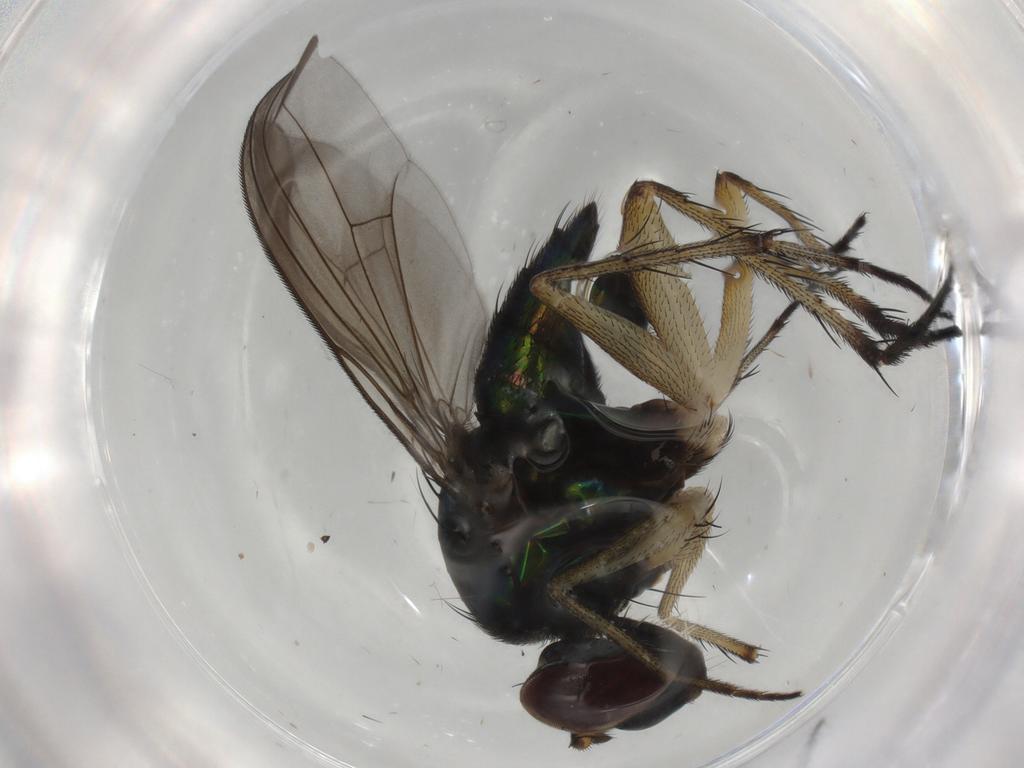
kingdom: Animalia
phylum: Arthropoda
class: Insecta
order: Diptera
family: Dolichopodidae
